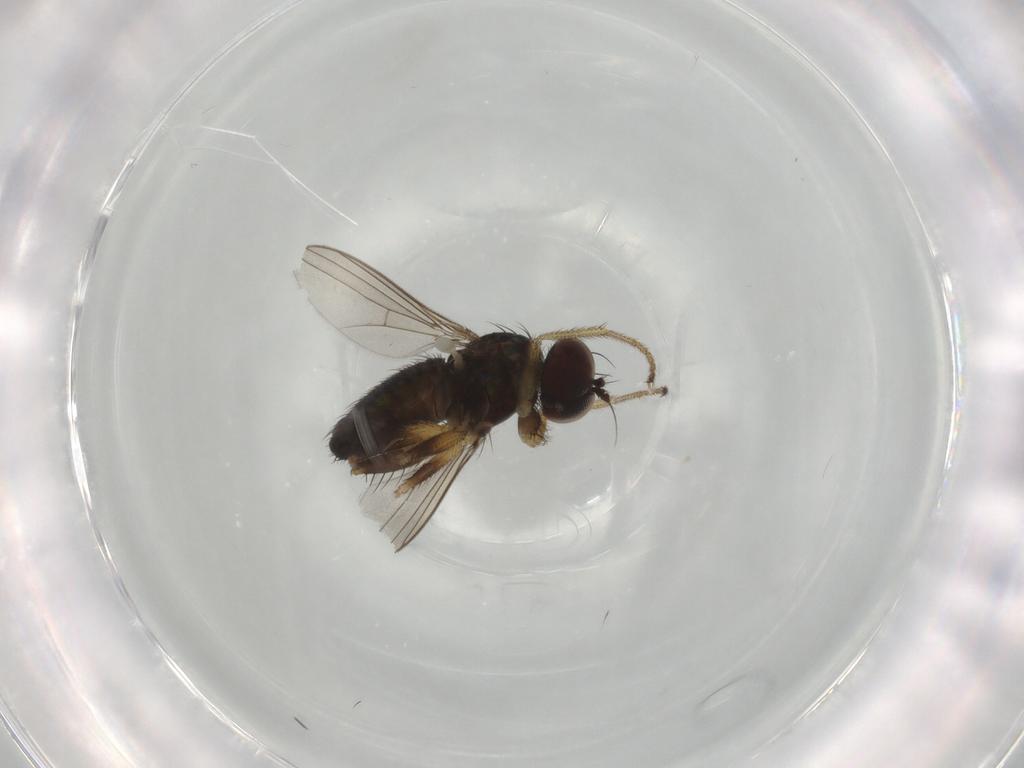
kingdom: Animalia
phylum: Arthropoda
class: Insecta
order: Diptera
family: Dolichopodidae
